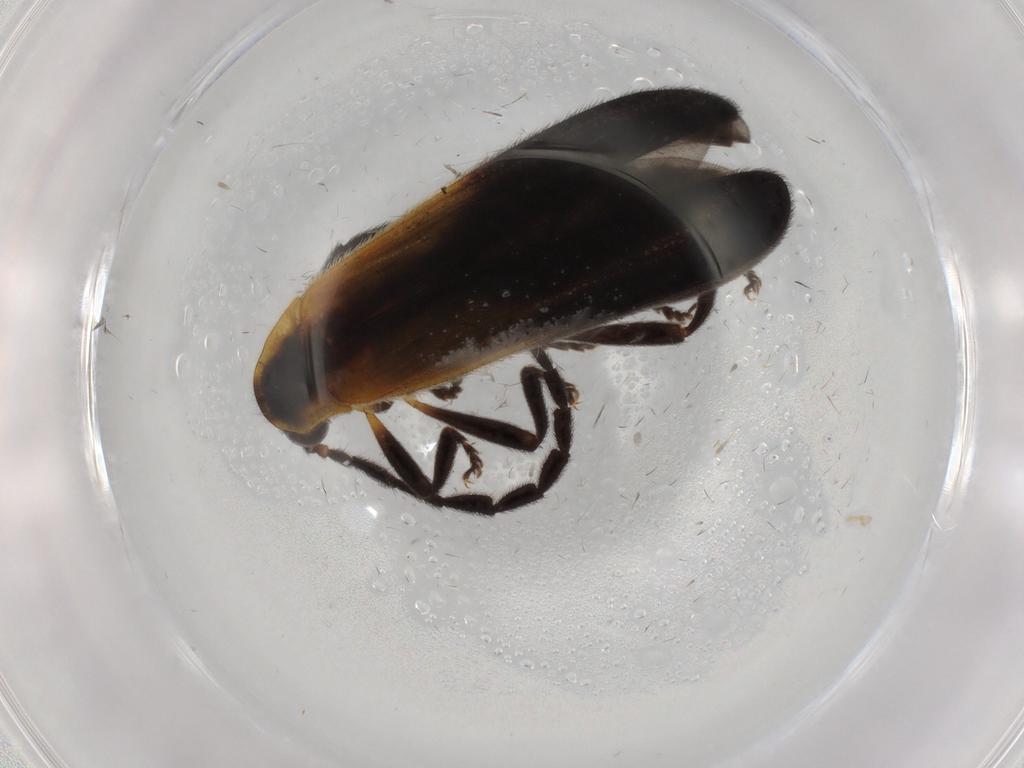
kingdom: Animalia
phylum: Arthropoda
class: Insecta
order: Coleoptera
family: Lycidae
